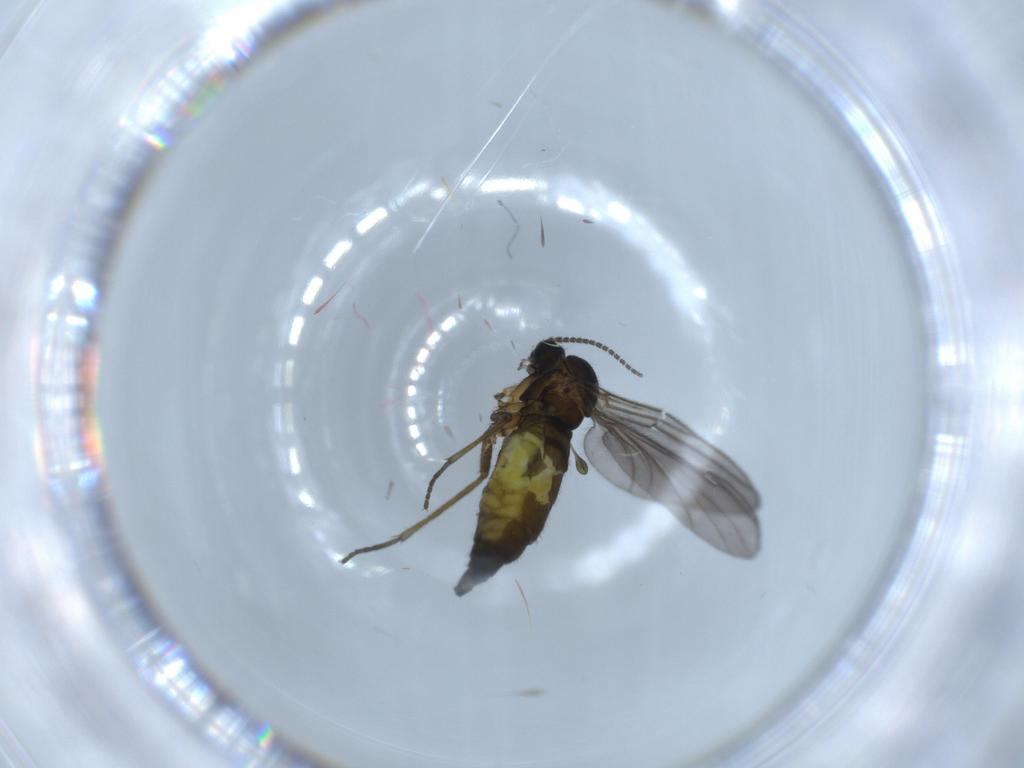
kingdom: Animalia
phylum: Arthropoda
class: Insecta
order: Diptera
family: Sciaridae
